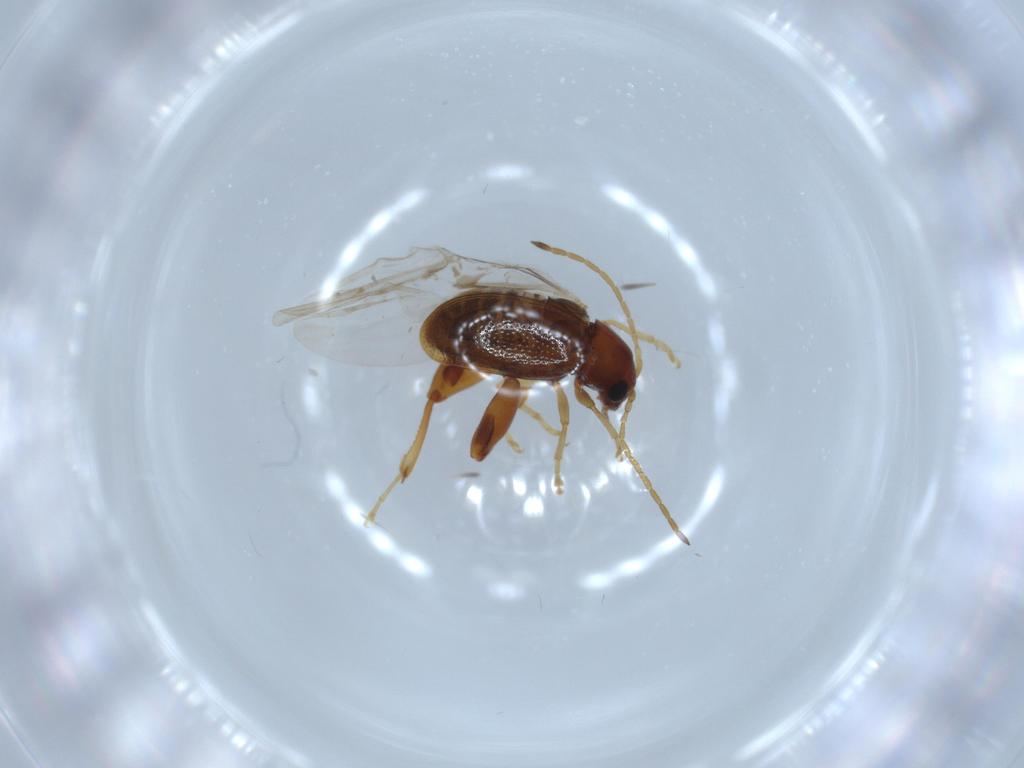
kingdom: Animalia
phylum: Arthropoda
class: Insecta
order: Coleoptera
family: Chrysomelidae
